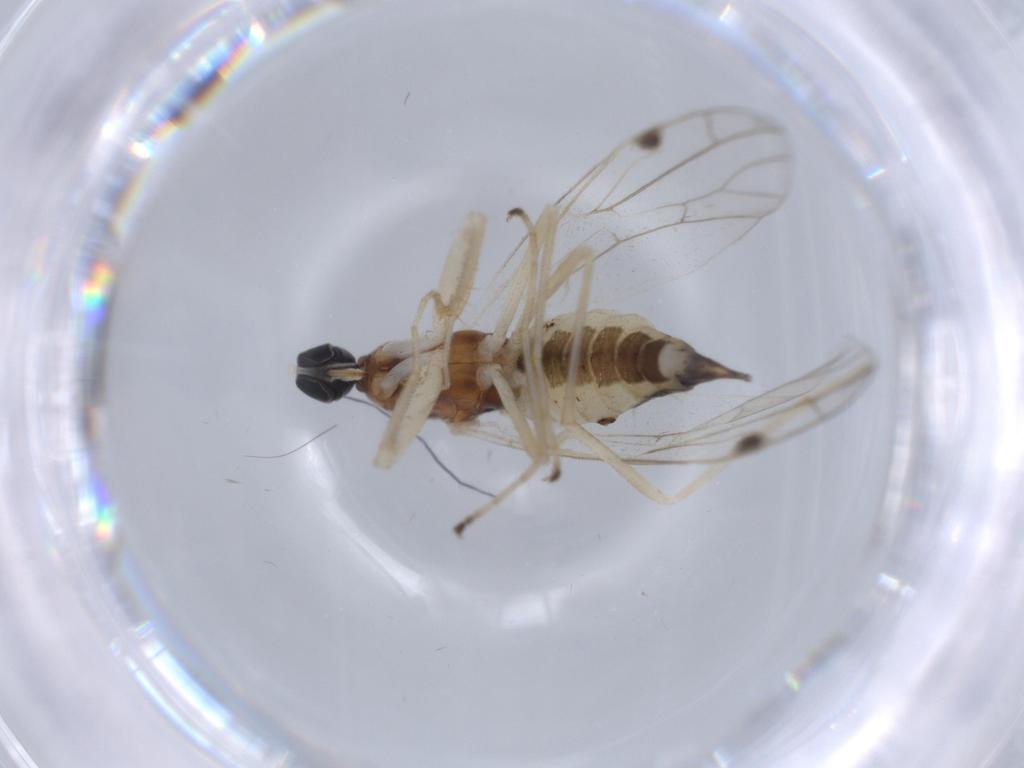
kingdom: Animalia
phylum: Arthropoda
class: Insecta
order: Diptera
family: Empididae
